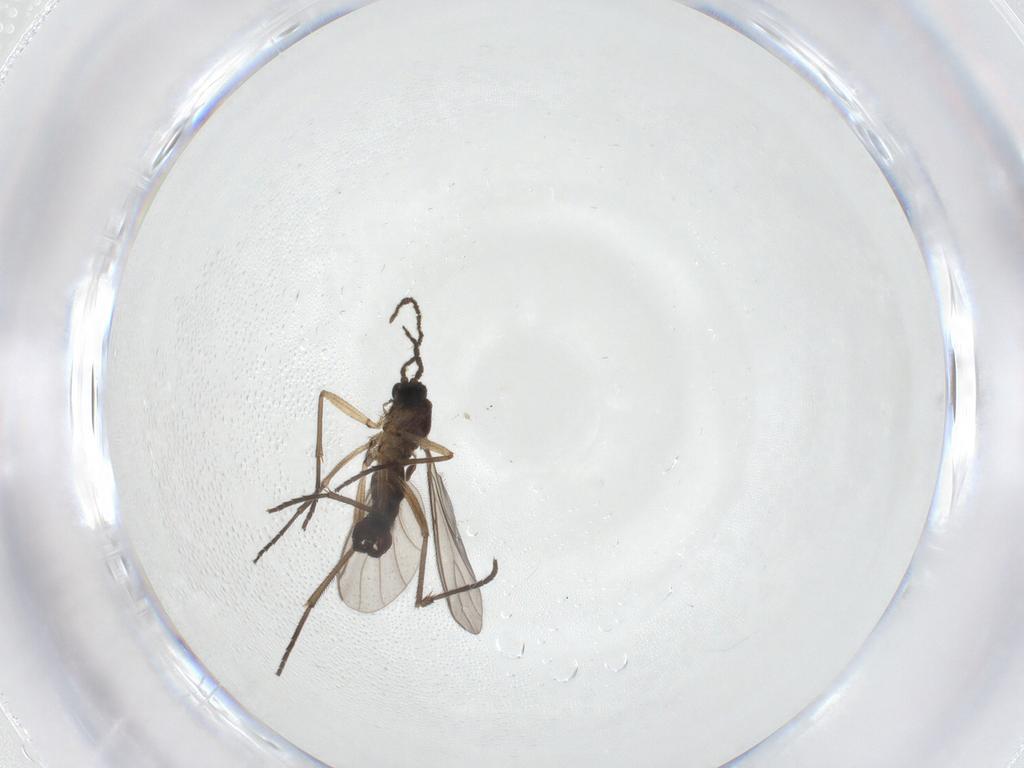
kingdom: Animalia
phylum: Arthropoda
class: Insecta
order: Diptera
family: Sciaridae
